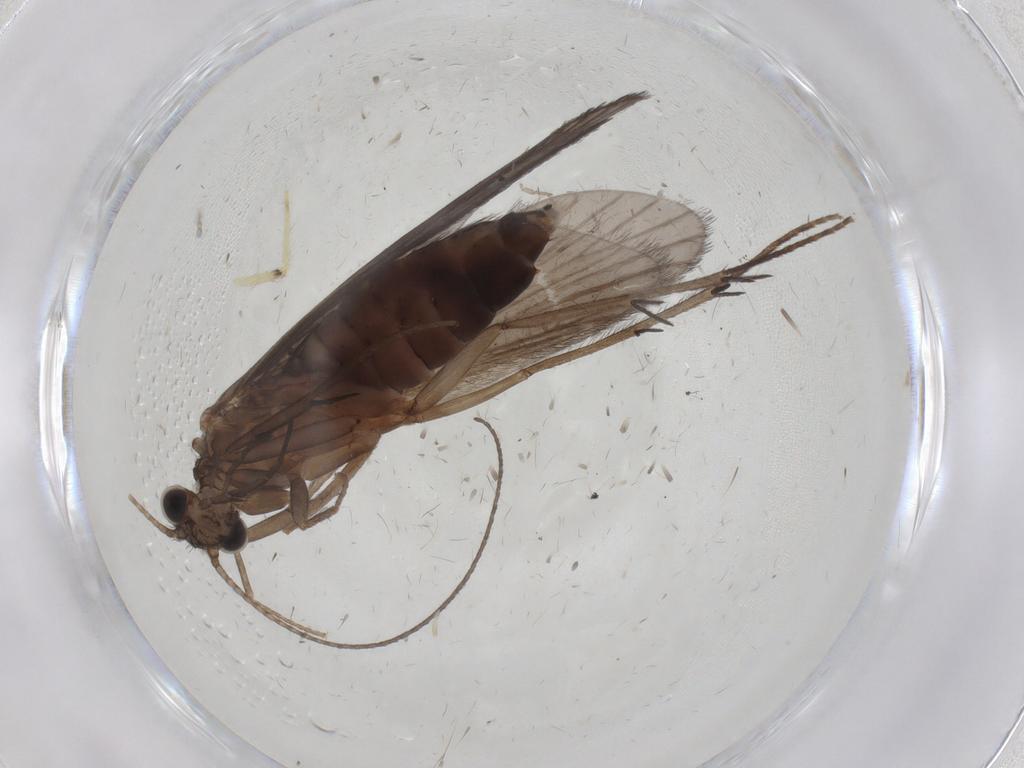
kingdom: Animalia
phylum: Arthropoda
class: Insecta
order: Trichoptera
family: Philopotamidae
